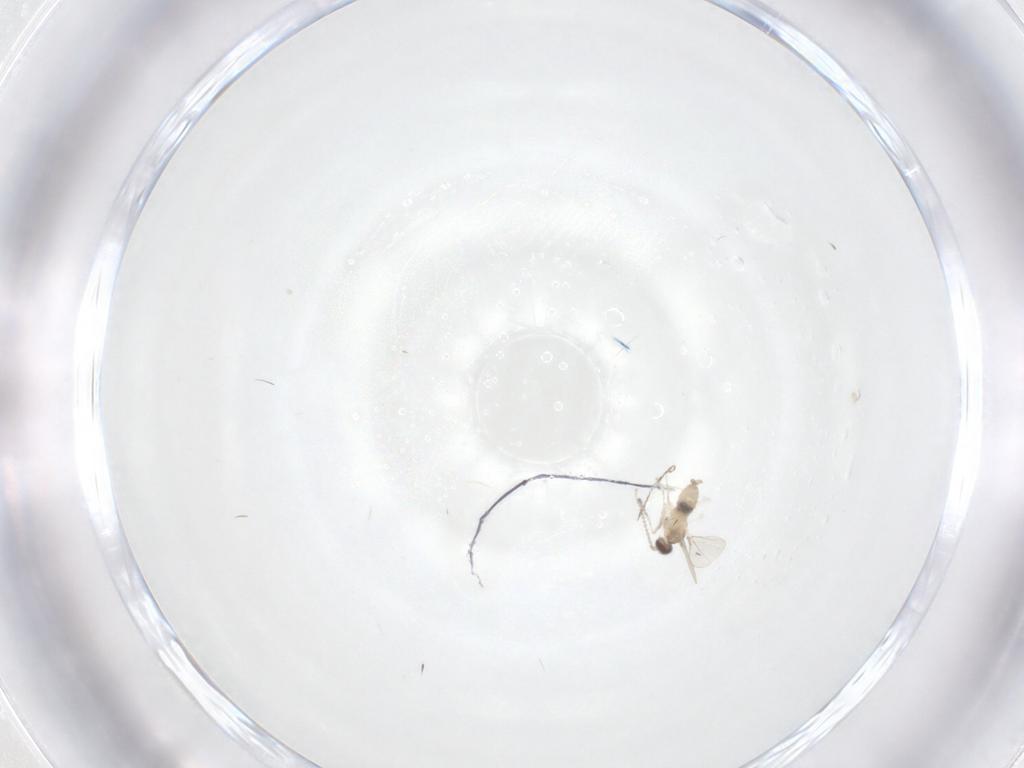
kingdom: Animalia
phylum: Arthropoda
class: Insecta
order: Diptera
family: Cecidomyiidae
